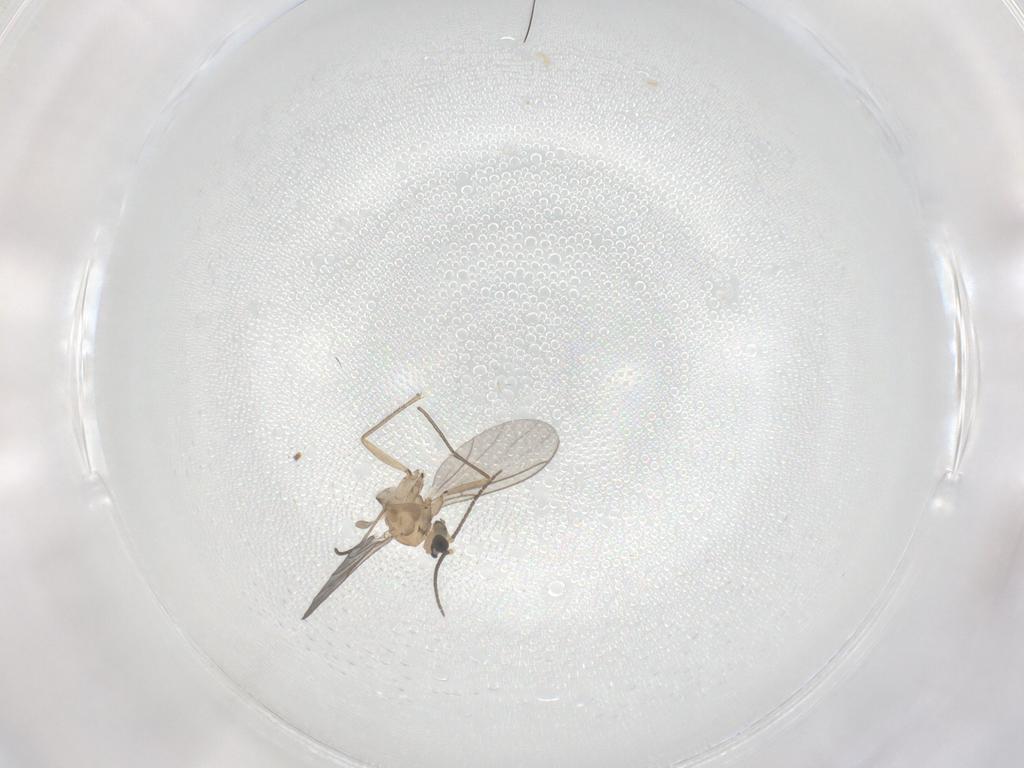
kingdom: Animalia
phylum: Arthropoda
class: Insecta
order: Diptera
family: Sciaridae
